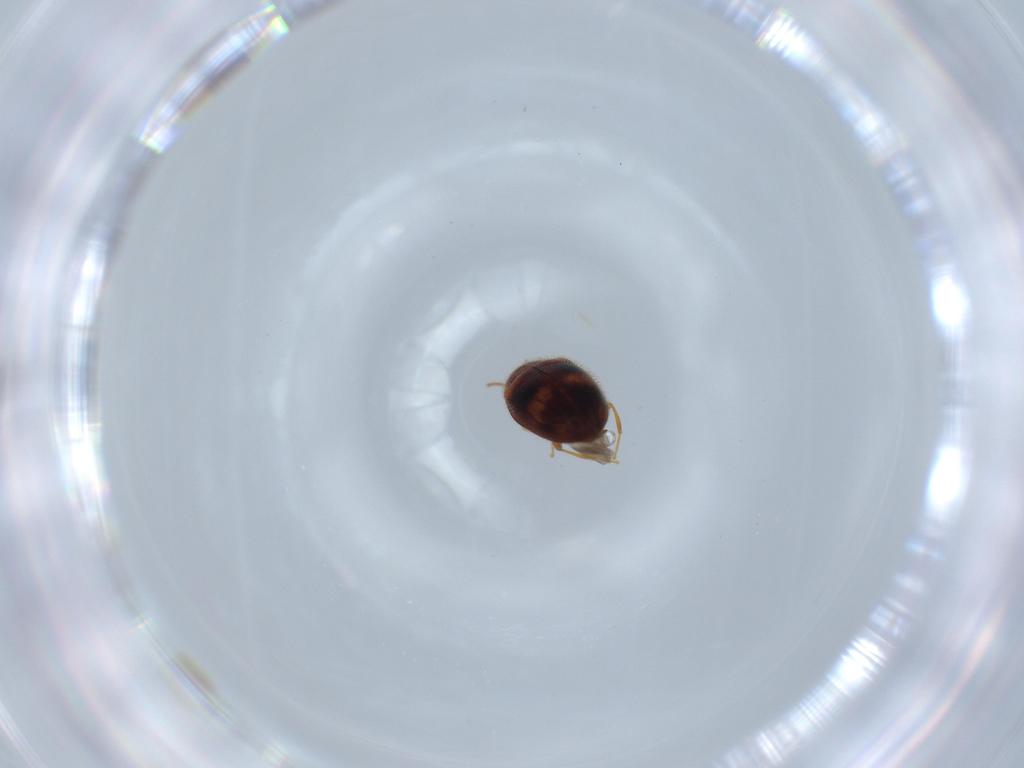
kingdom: Animalia
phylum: Arthropoda
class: Insecta
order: Coleoptera
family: Erotylidae
